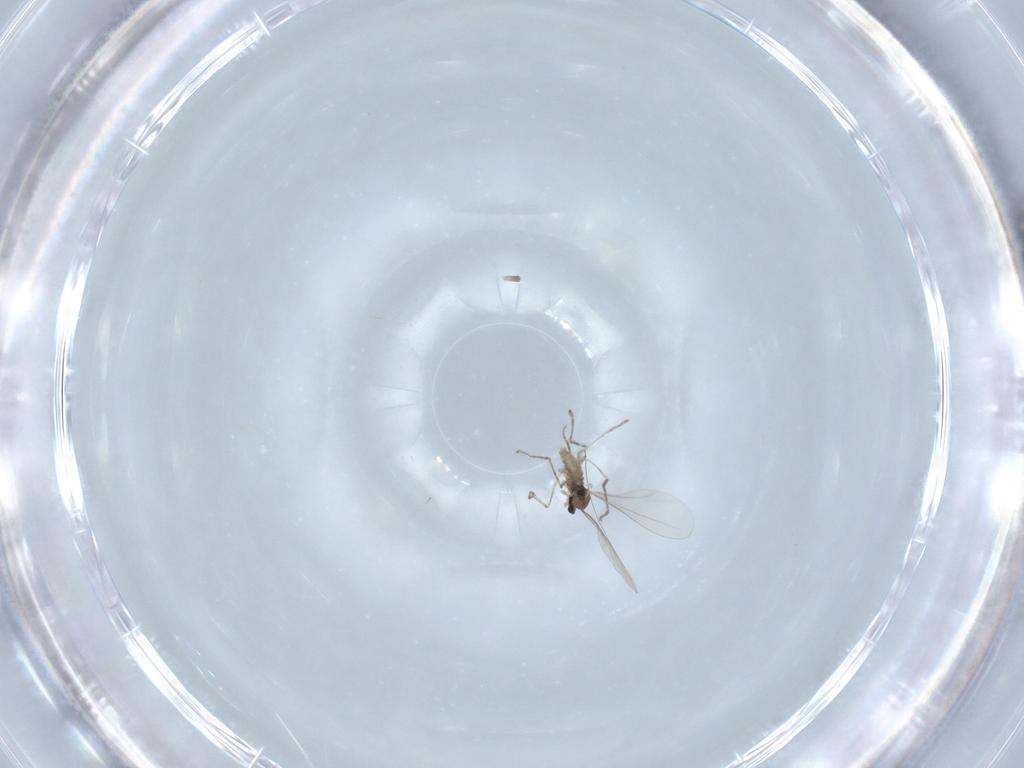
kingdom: Animalia
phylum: Arthropoda
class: Insecta
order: Diptera
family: Cecidomyiidae
